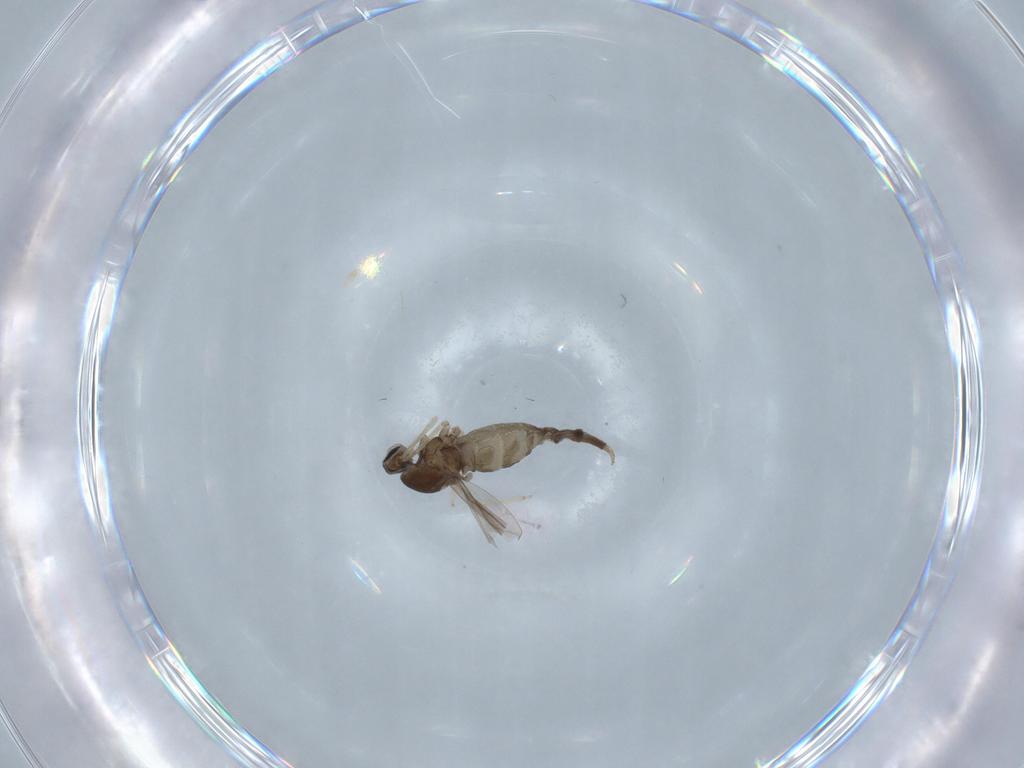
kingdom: Animalia
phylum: Arthropoda
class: Insecta
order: Diptera
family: Cecidomyiidae
